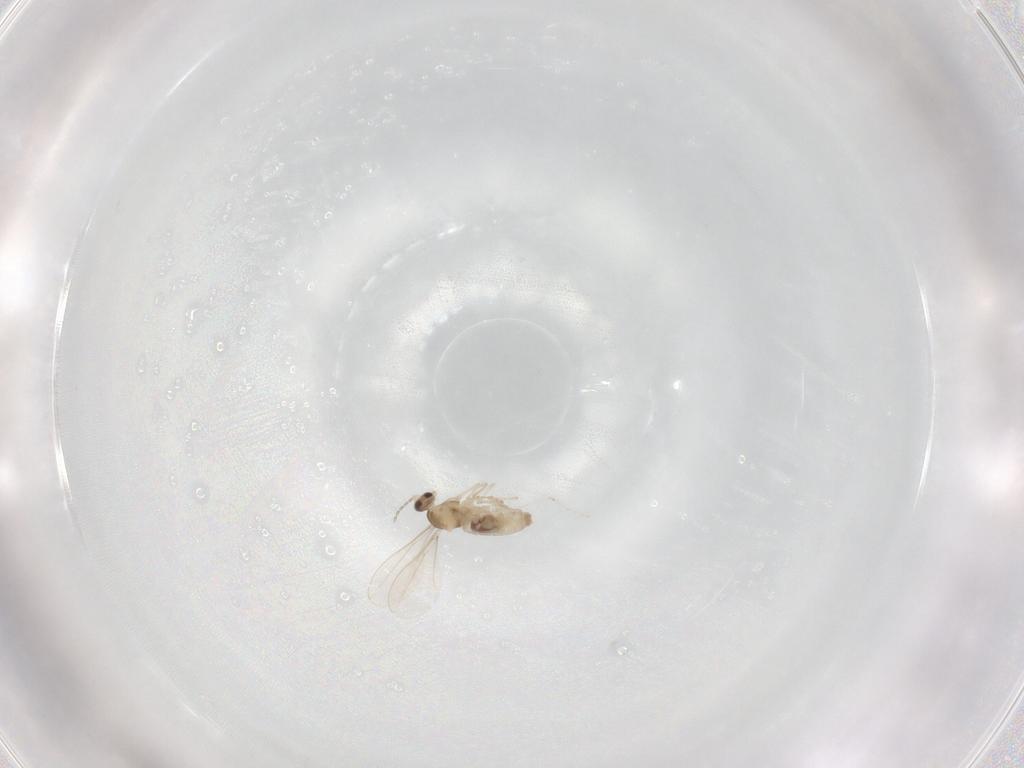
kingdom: Animalia
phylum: Arthropoda
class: Insecta
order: Diptera
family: Cecidomyiidae
